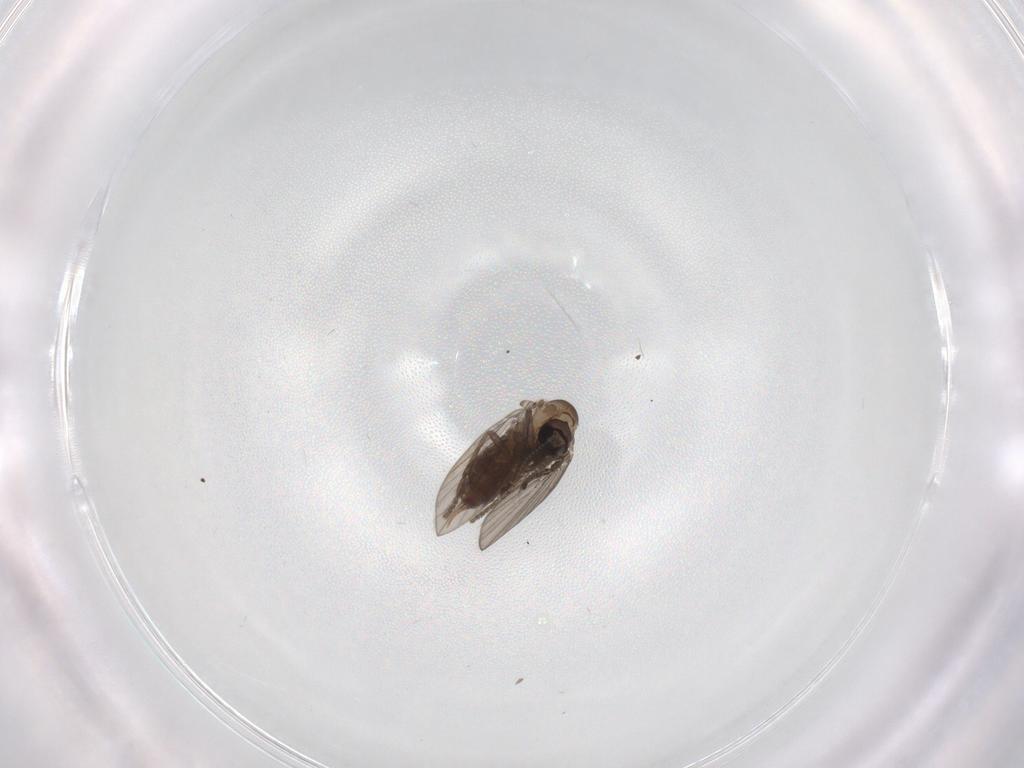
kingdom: Animalia
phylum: Arthropoda
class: Insecta
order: Diptera
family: Psychodidae
